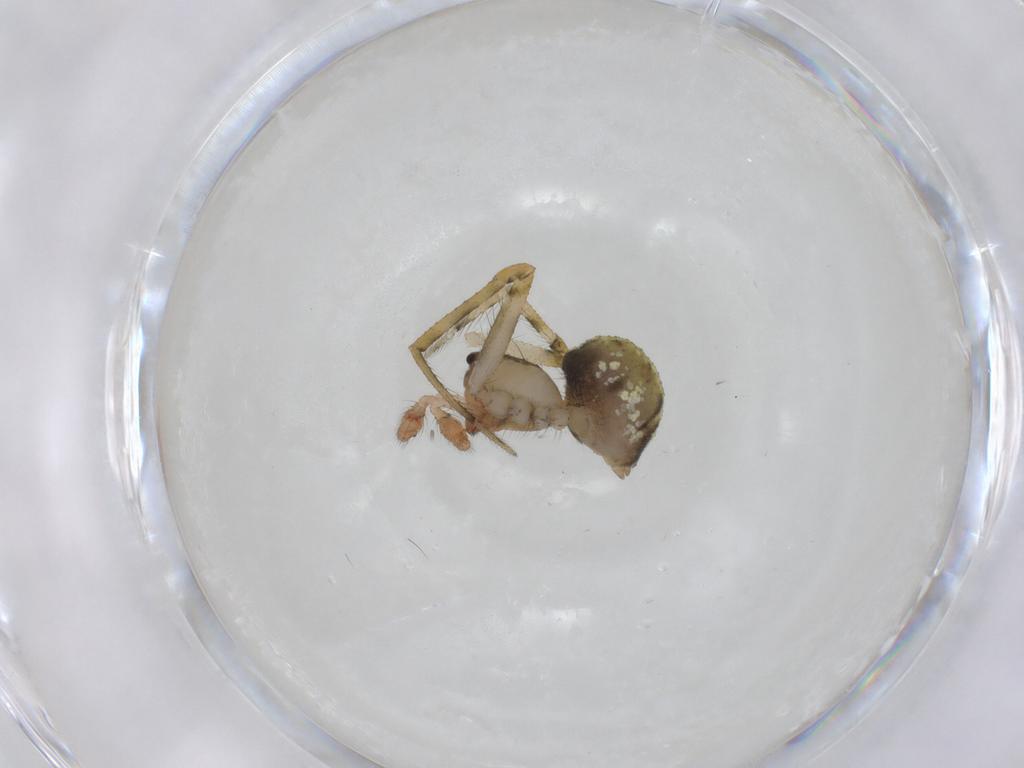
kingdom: Animalia
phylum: Arthropoda
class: Arachnida
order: Araneae
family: Theridiidae
